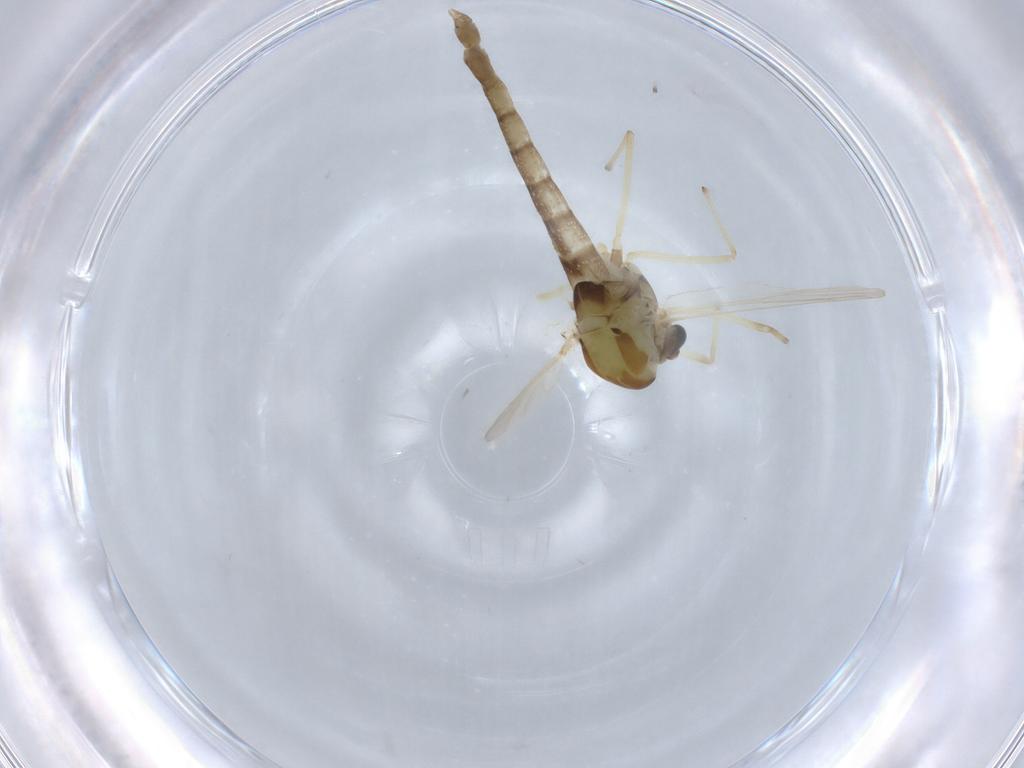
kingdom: Animalia
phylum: Arthropoda
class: Insecta
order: Diptera
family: Chironomidae
